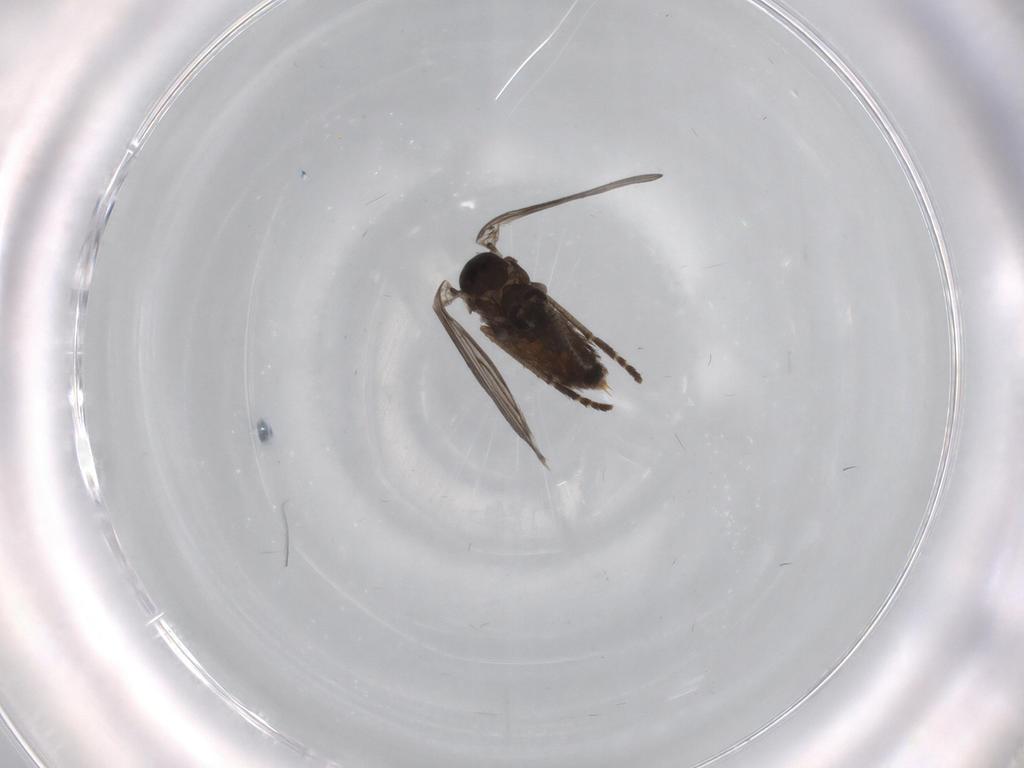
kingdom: Animalia
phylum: Arthropoda
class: Insecta
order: Diptera
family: Psychodidae
